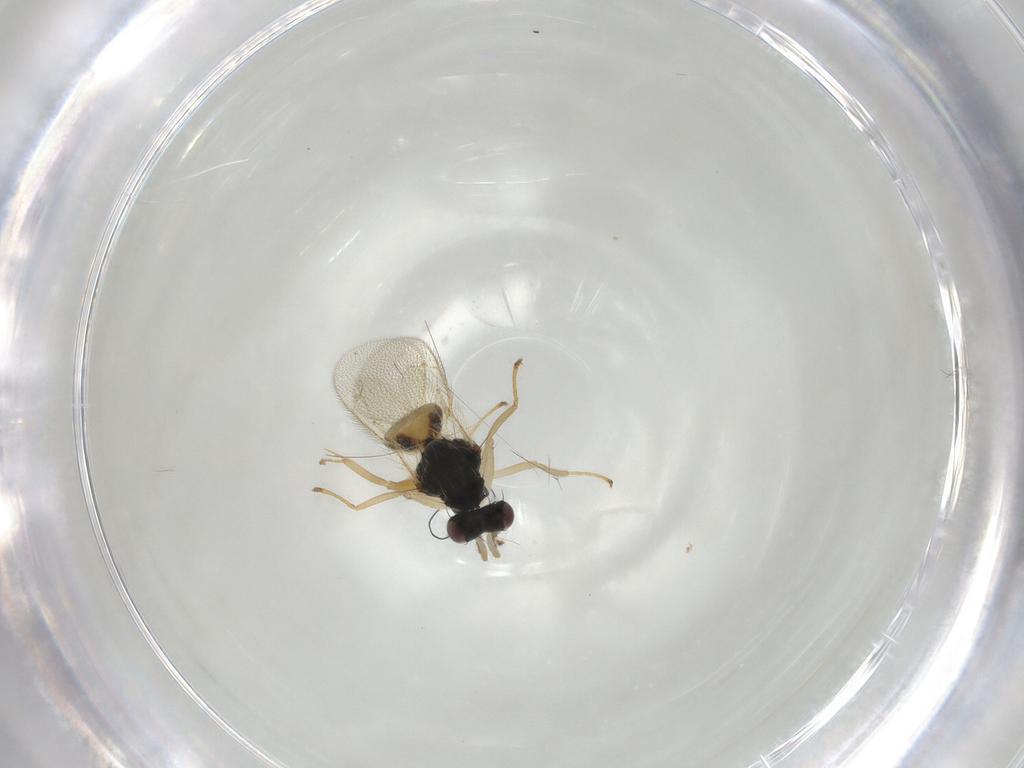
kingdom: Animalia
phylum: Arthropoda
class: Insecta
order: Hymenoptera
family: Eulophidae
